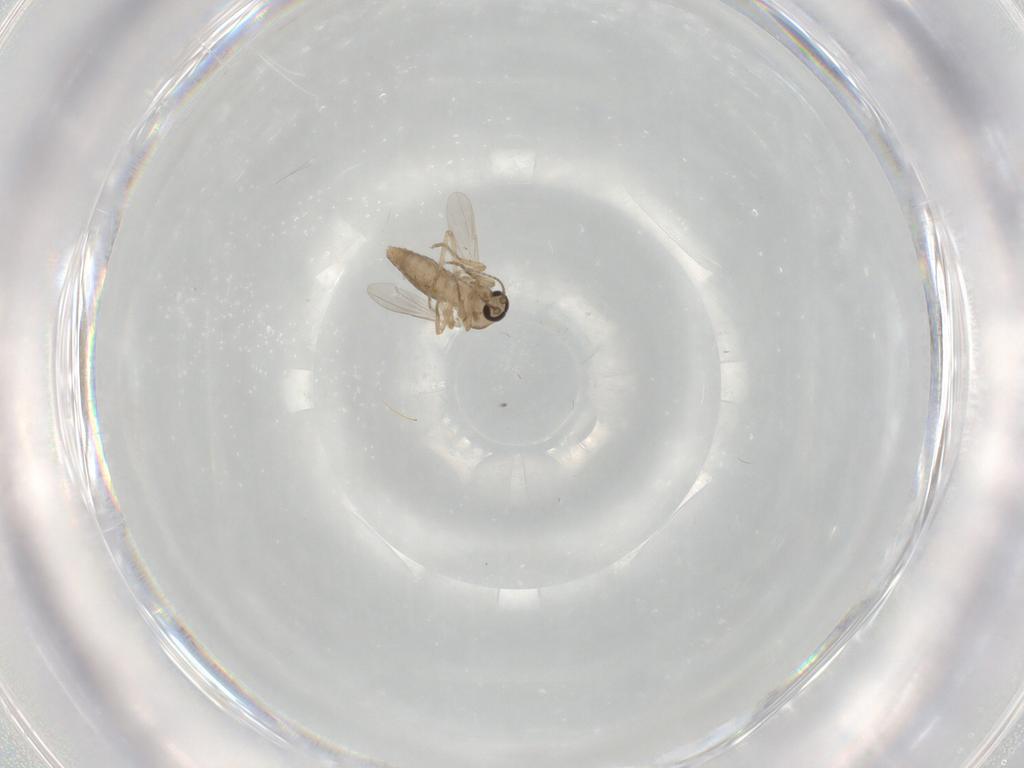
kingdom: Animalia
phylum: Arthropoda
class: Insecta
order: Diptera
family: Ceratopogonidae
